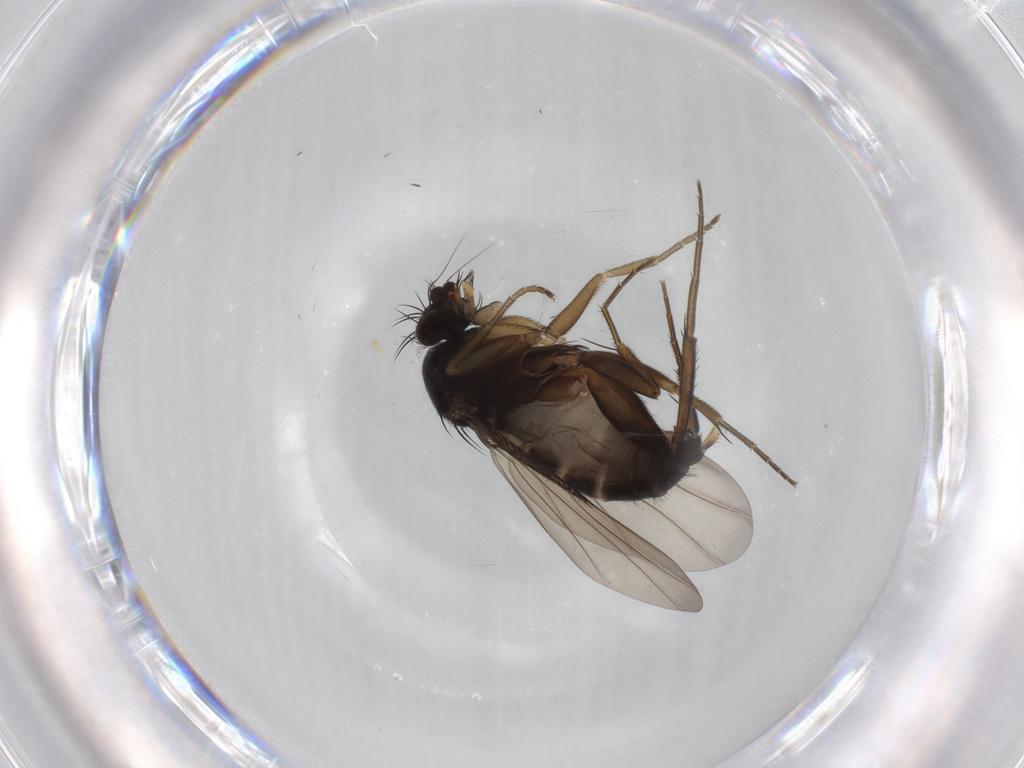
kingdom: Animalia
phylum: Arthropoda
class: Insecta
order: Diptera
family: Phoridae
